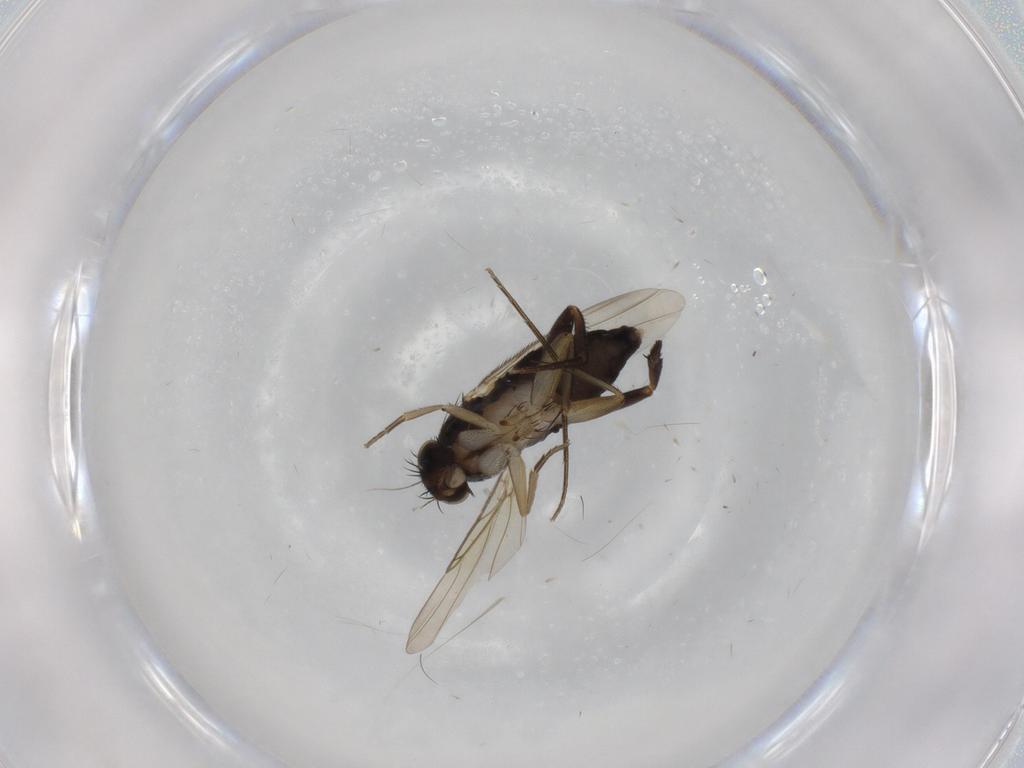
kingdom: Animalia
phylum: Arthropoda
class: Insecta
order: Diptera
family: Phoridae
